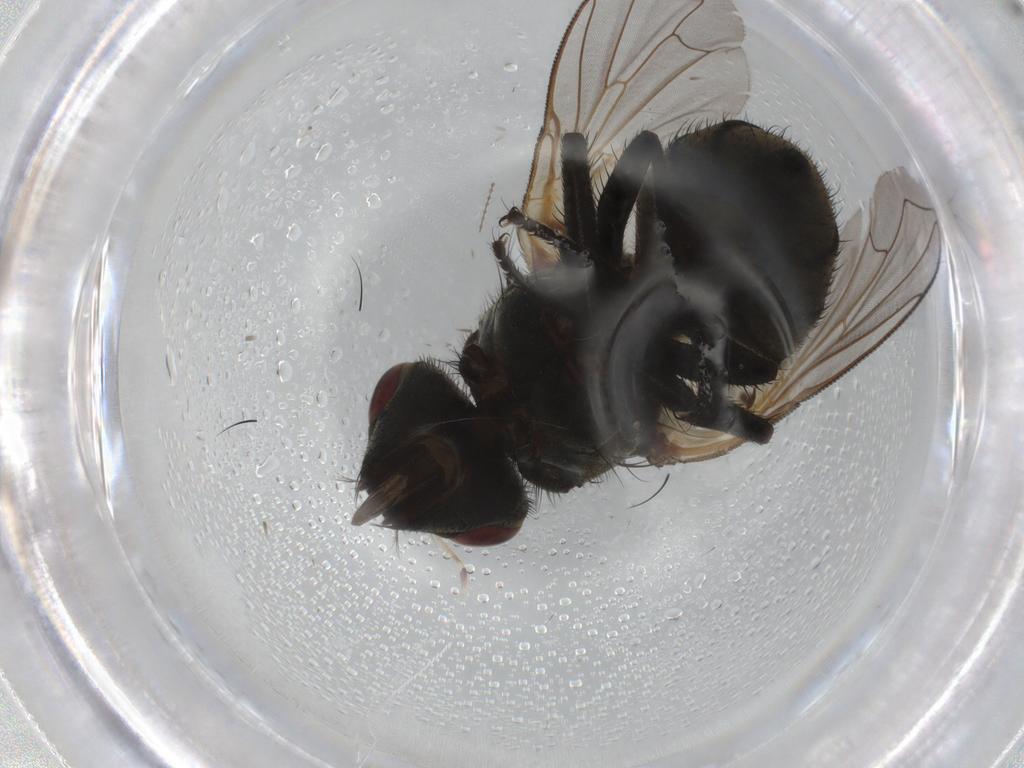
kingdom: Animalia
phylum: Arthropoda
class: Insecta
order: Diptera
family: Muscidae
